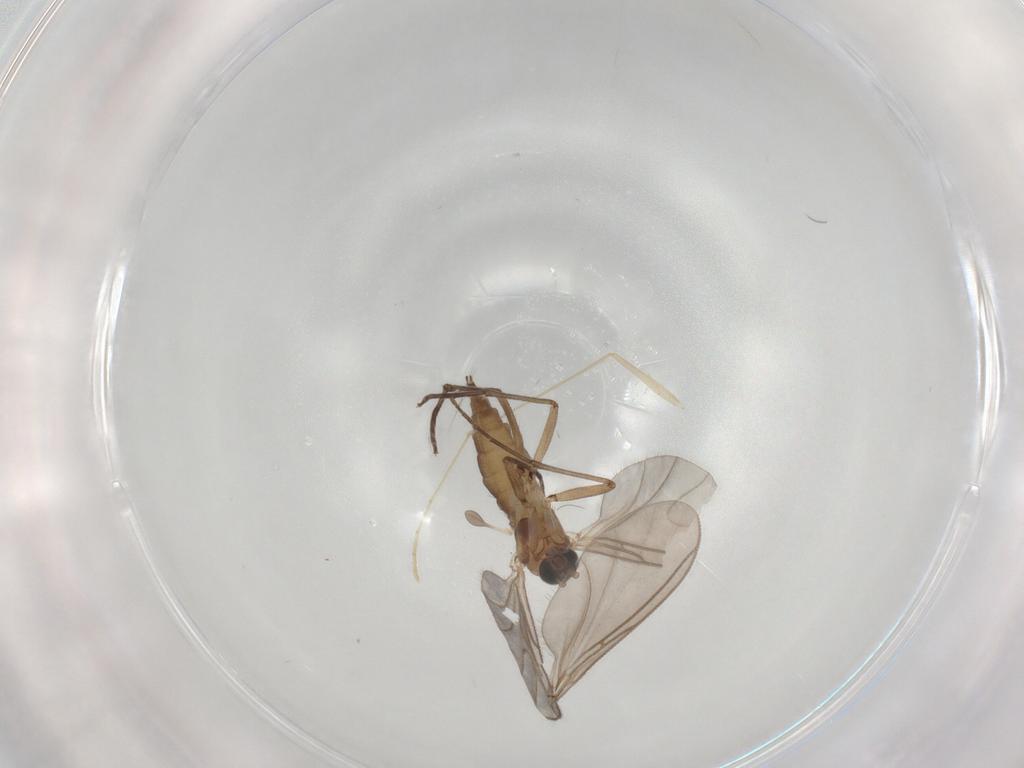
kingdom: Animalia
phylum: Arthropoda
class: Insecta
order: Diptera
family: Sciaridae
